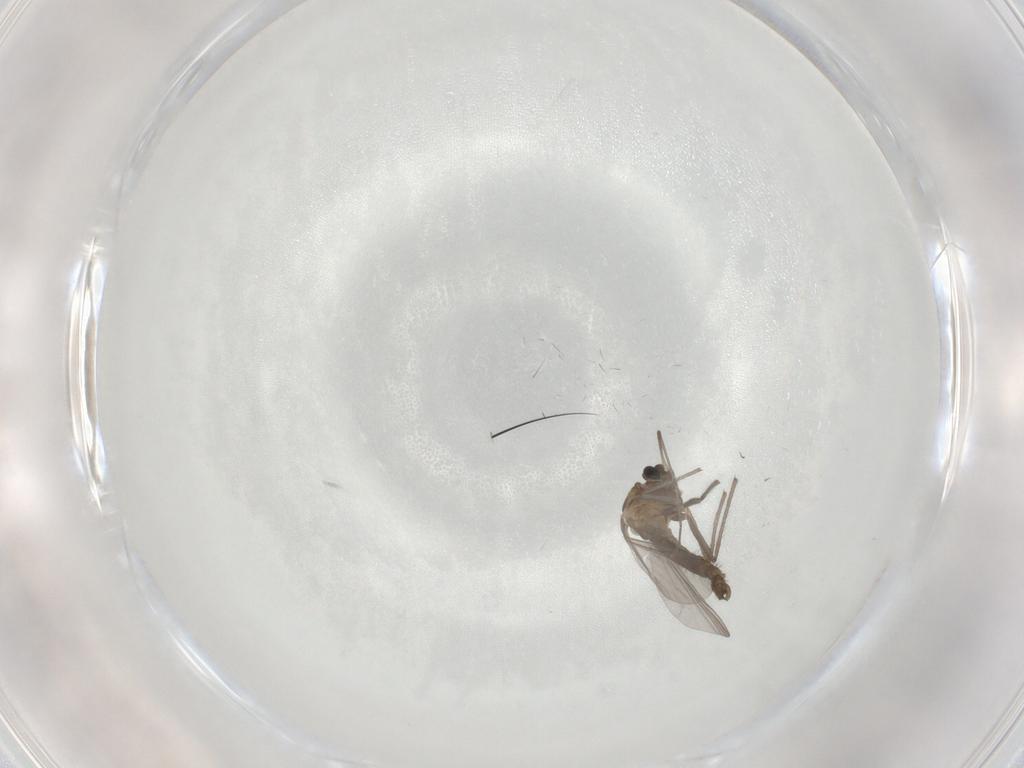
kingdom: Animalia
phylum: Arthropoda
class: Insecta
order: Diptera
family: Chironomidae
